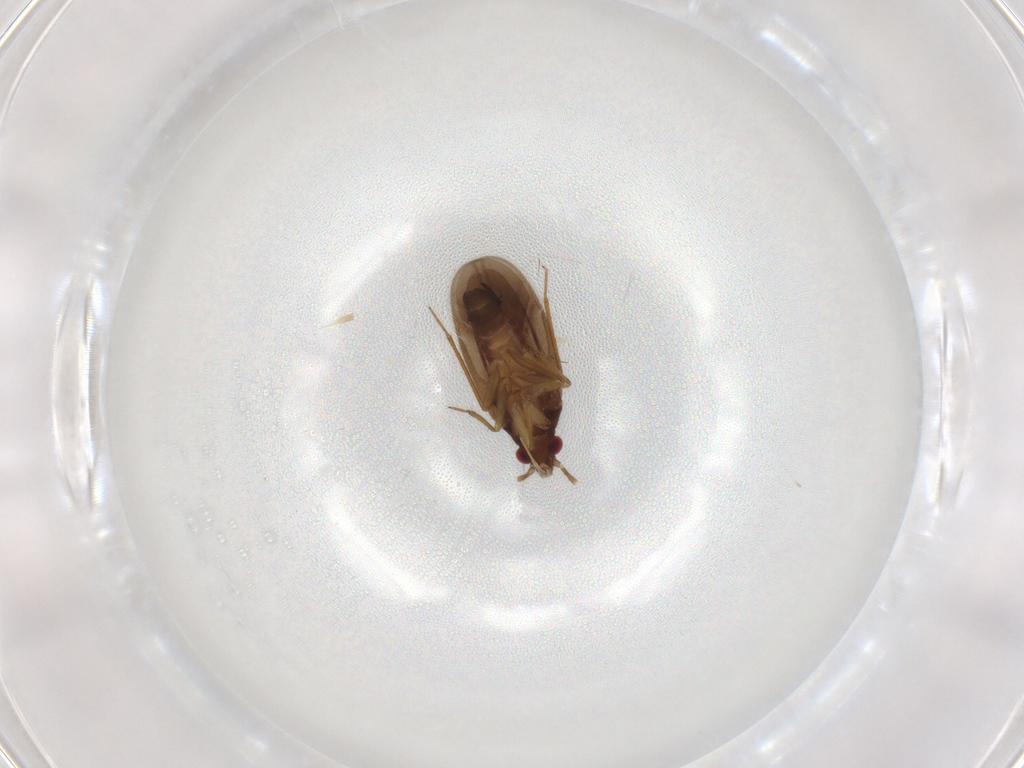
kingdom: Animalia
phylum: Arthropoda
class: Insecta
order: Hemiptera
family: Ceratocombidae
